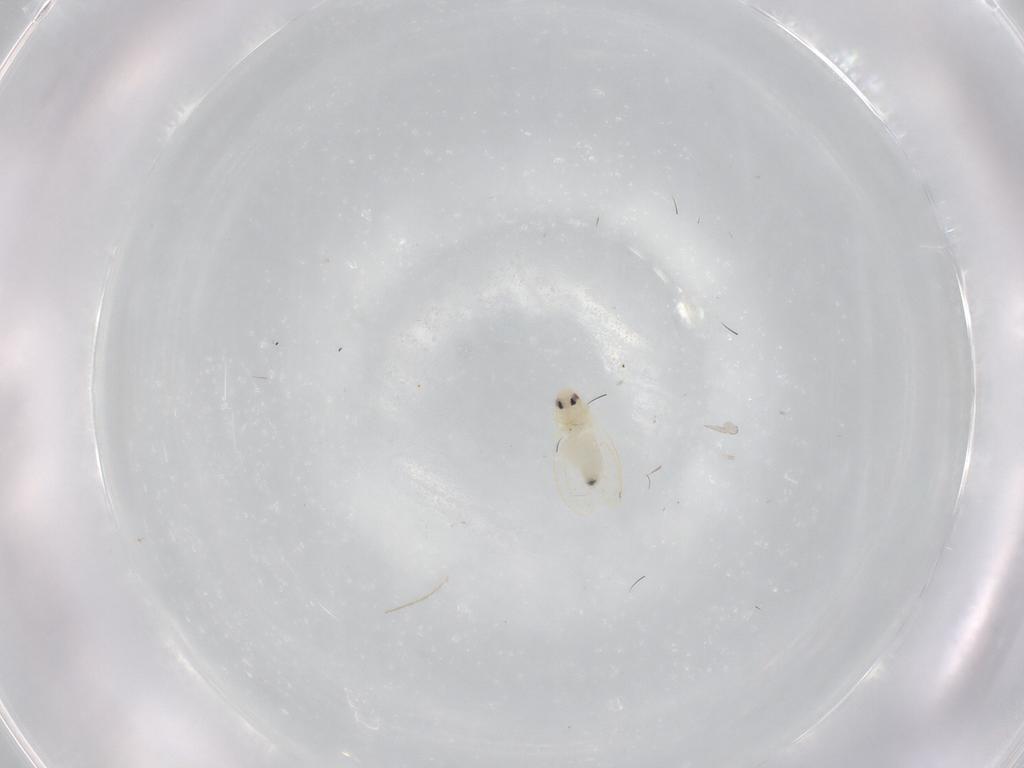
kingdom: Animalia
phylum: Arthropoda
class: Insecta
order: Hemiptera
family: Aleyrodidae
